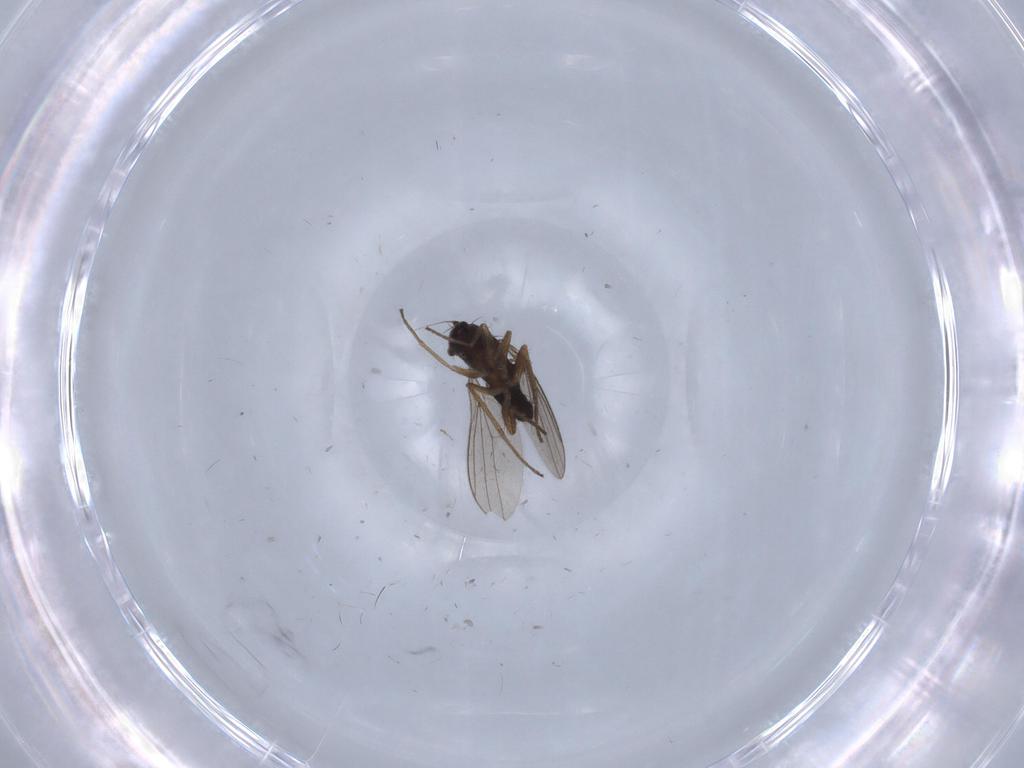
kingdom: Animalia
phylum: Arthropoda
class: Insecta
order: Diptera
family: Dolichopodidae
